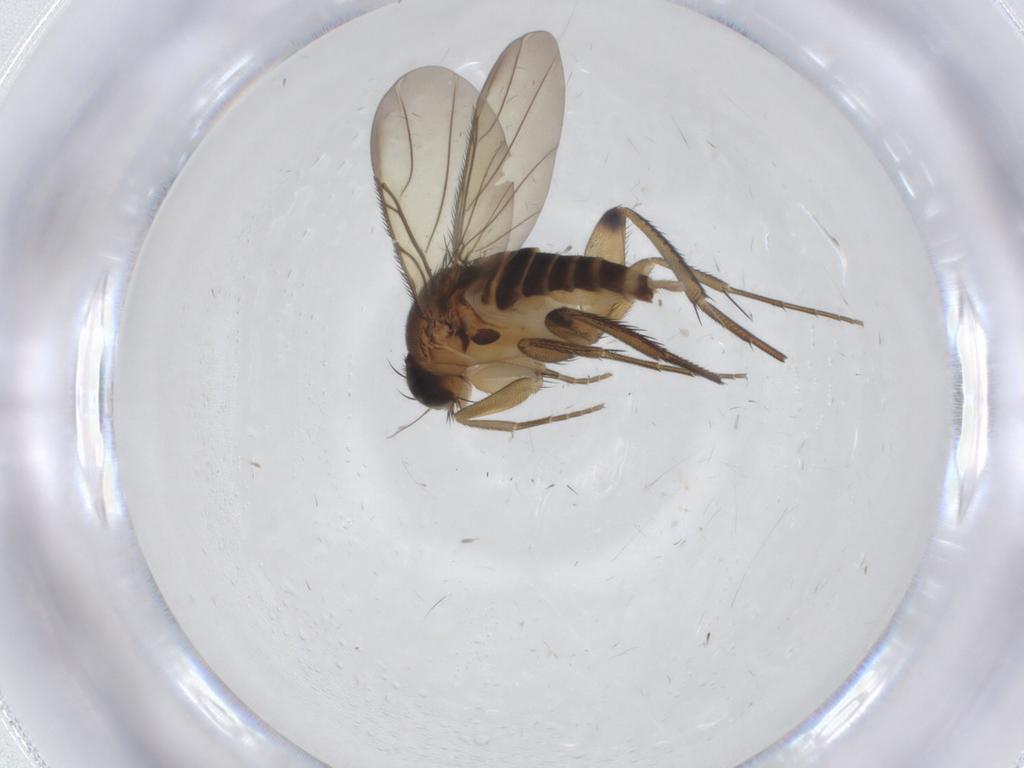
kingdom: Animalia
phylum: Arthropoda
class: Insecta
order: Diptera
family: Phoridae
